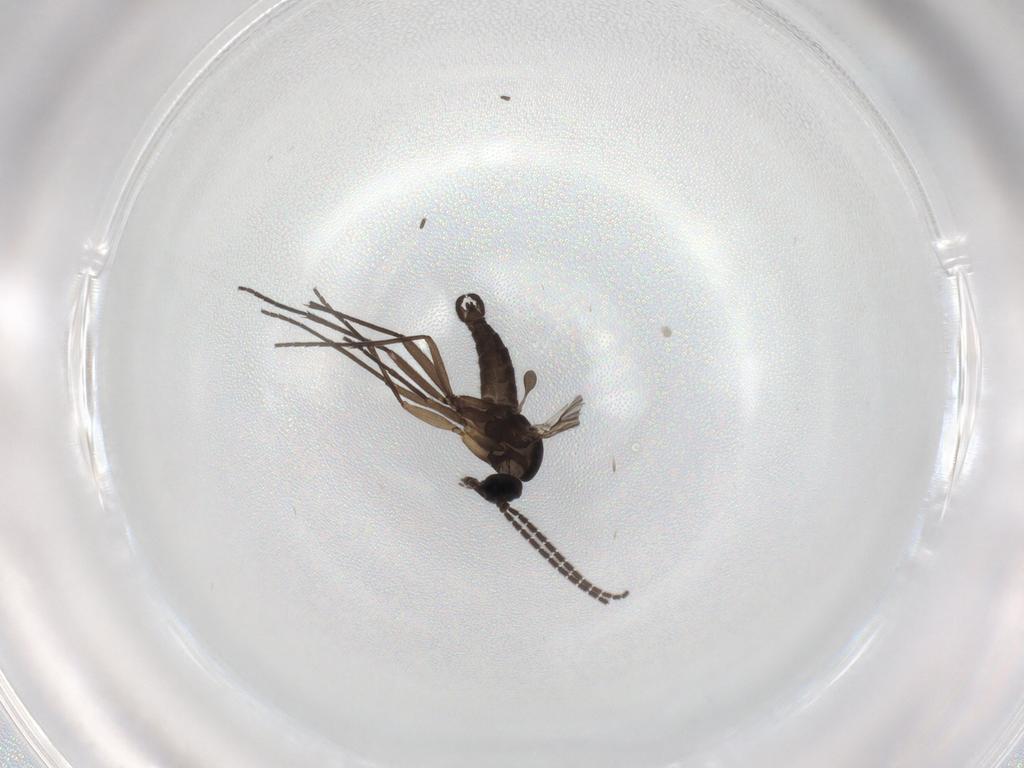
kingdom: Animalia
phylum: Arthropoda
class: Insecta
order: Diptera
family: Sciaridae
